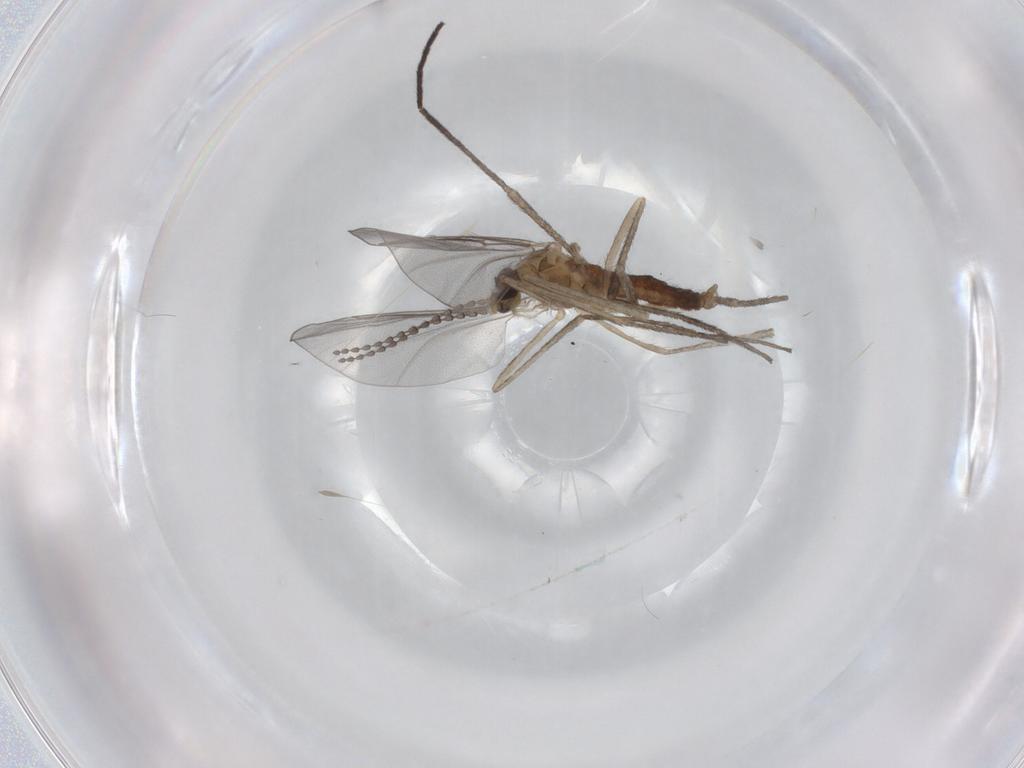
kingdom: Animalia
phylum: Arthropoda
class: Insecta
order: Diptera
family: Cecidomyiidae
